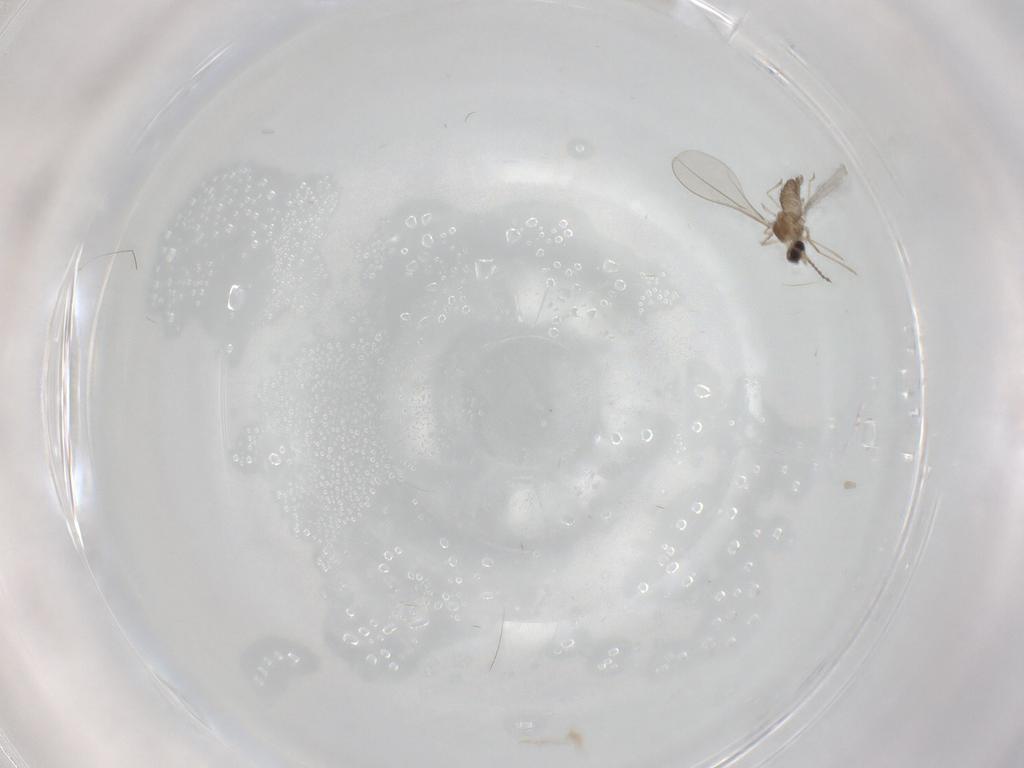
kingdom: Animalia
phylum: Arthropoda
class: Insecta
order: Diptera
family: Cecidomyiidae
